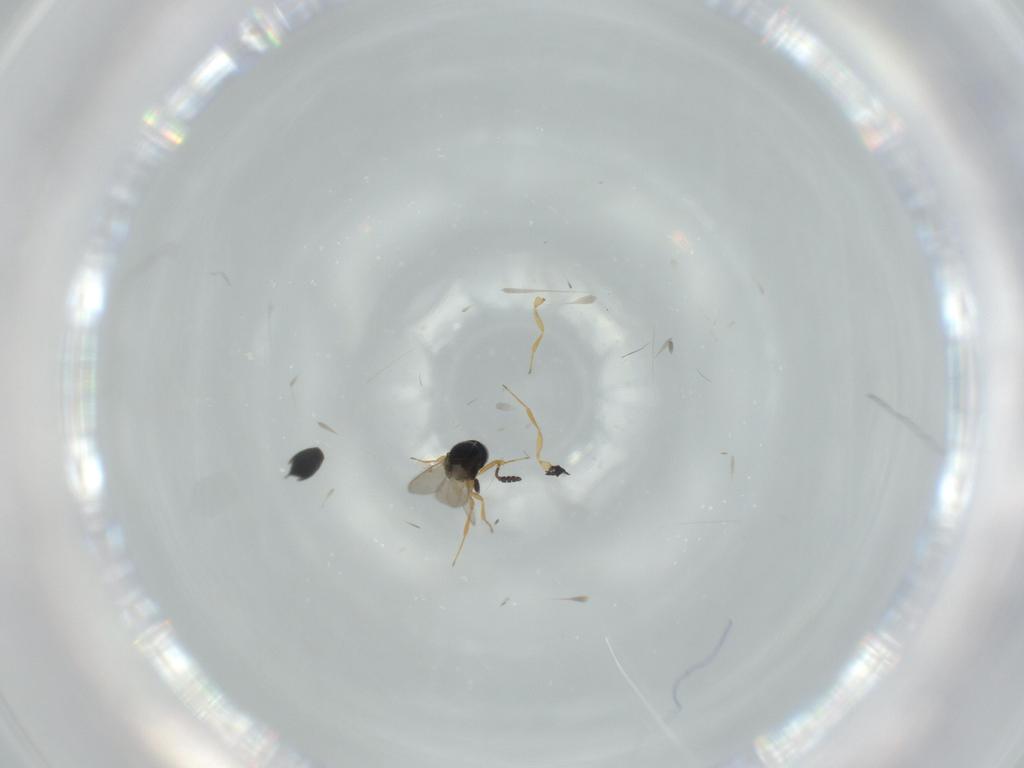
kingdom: Animalia
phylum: Arthropoda
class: Insecta
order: Hymenoptera
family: Scelionidae
